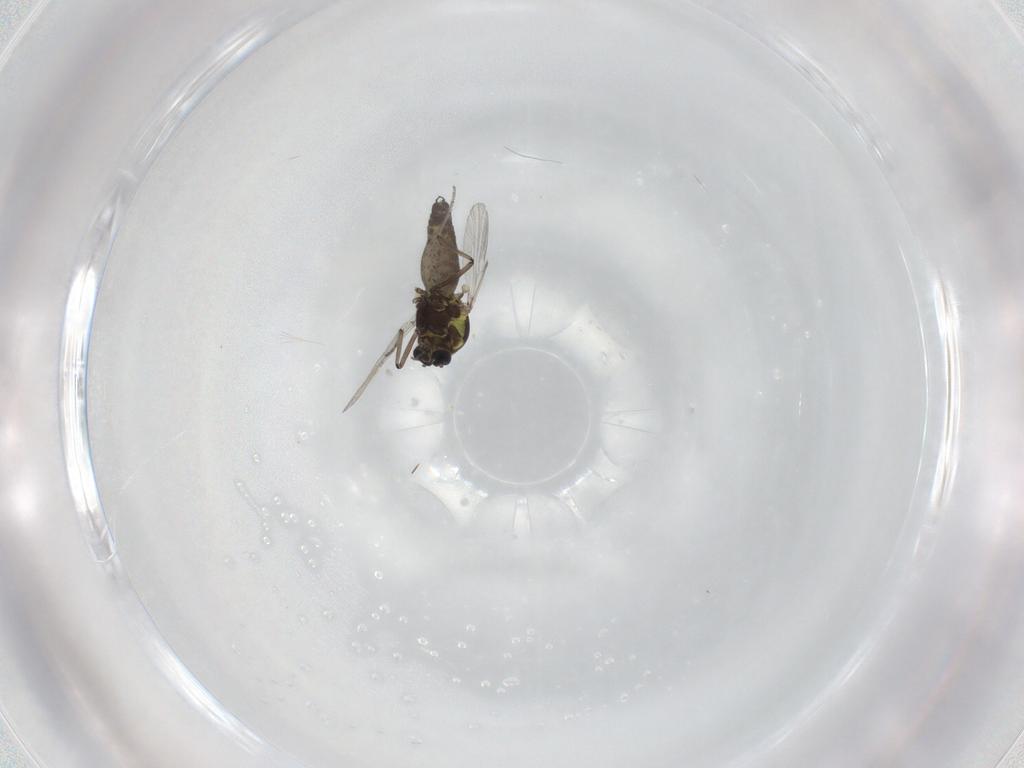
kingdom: Animalia
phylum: Arthropoda
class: Insecta
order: Diptera
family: Ceratopogonidae
